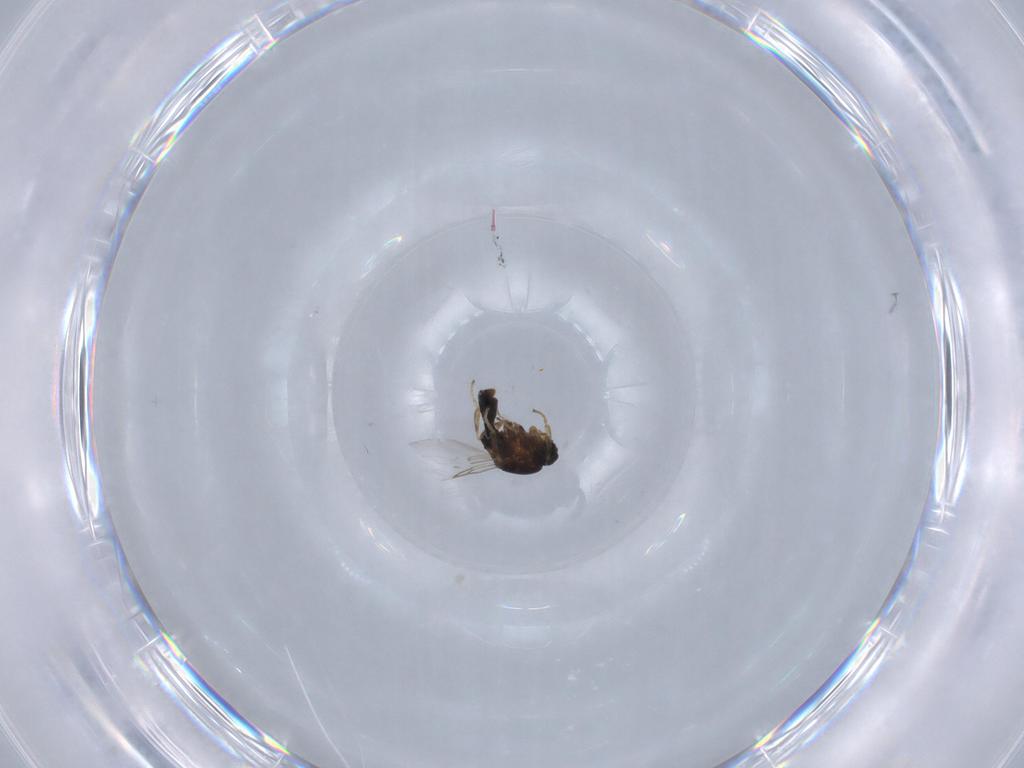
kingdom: Animalia
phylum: Arthropoda
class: Insecta
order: Diptera
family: Scatopsidae
